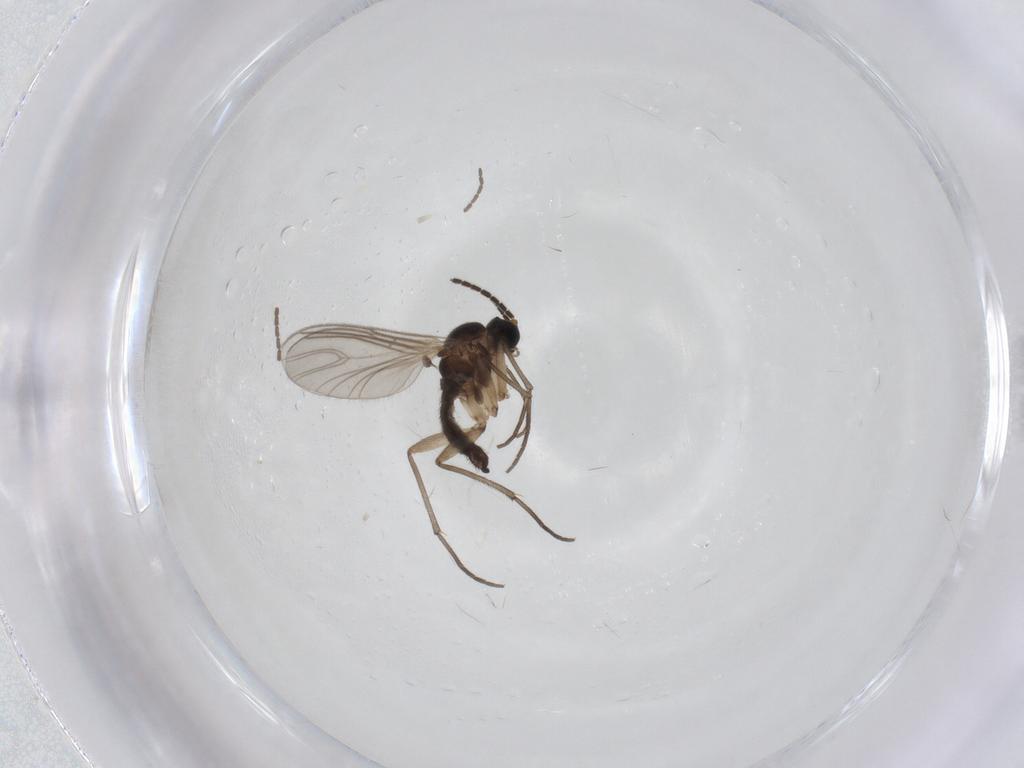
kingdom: Animalia
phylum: Arthropoda
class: Insecta
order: Diptera
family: Sciaridae
